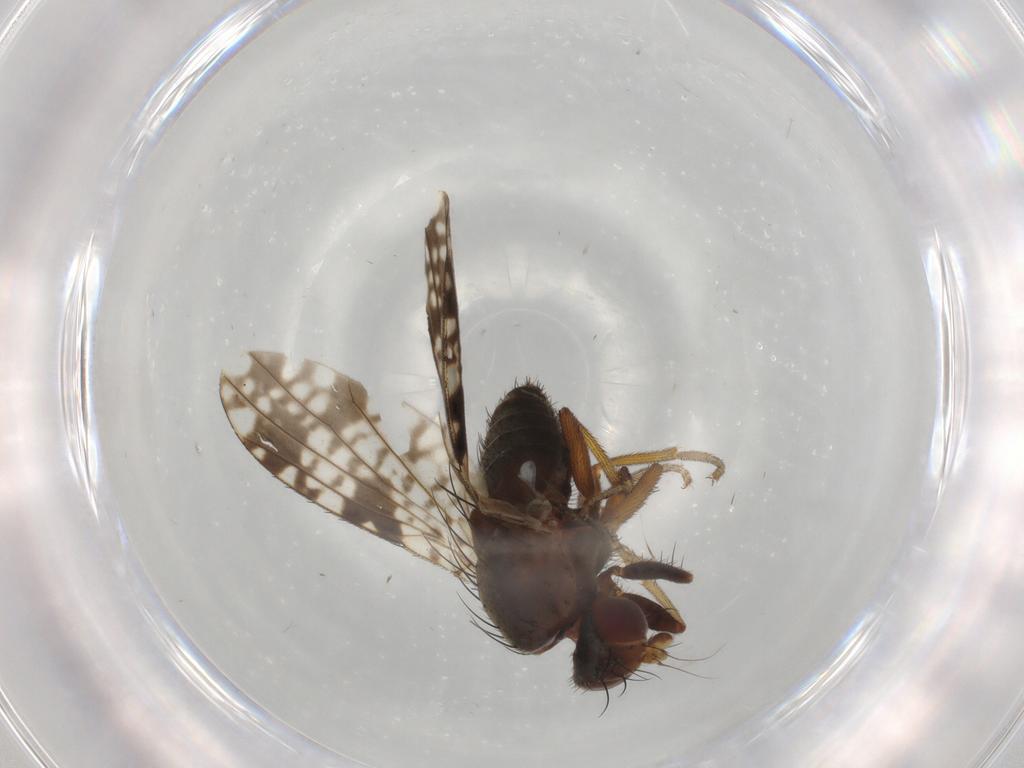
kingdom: Animalia
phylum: Arthropoda
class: Insecta
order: Diptera
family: Tephritidae
